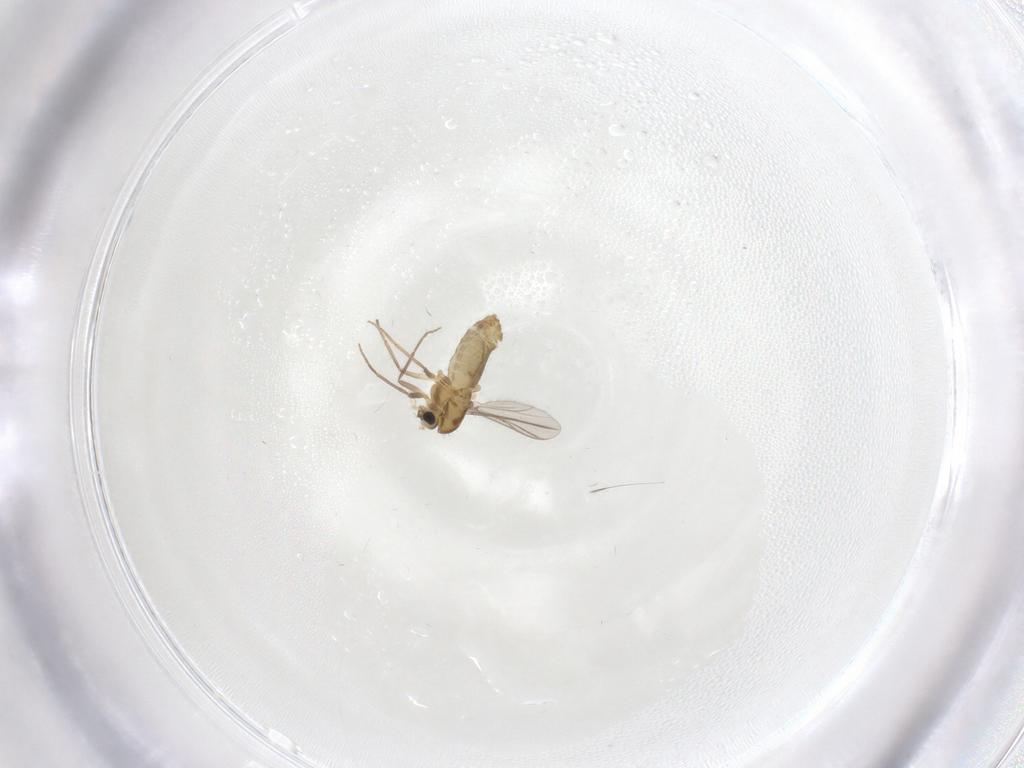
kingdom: Animalia
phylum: Arthropoda
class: Insecta
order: Diptera
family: Chironomidae
